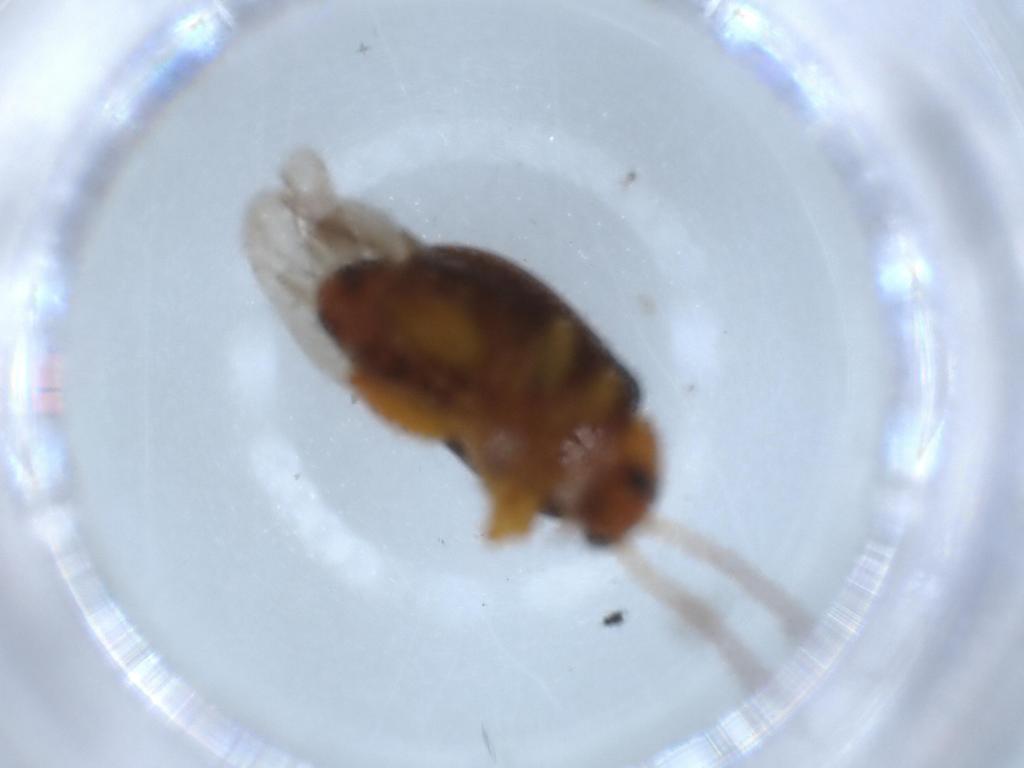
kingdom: Animalia
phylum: Arthropoda
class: Insecta
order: Coleoptera
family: Chrysomelidae
